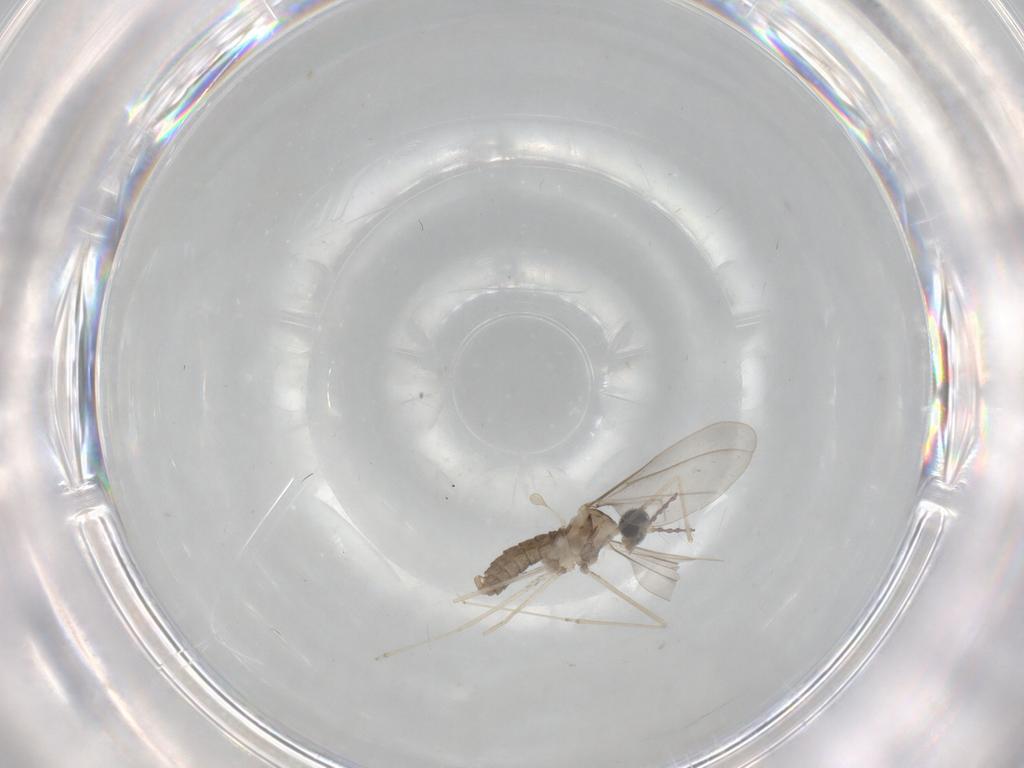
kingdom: Animalia
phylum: Arthropoda
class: Insecta
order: Diptera
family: Cecidomyiidae
